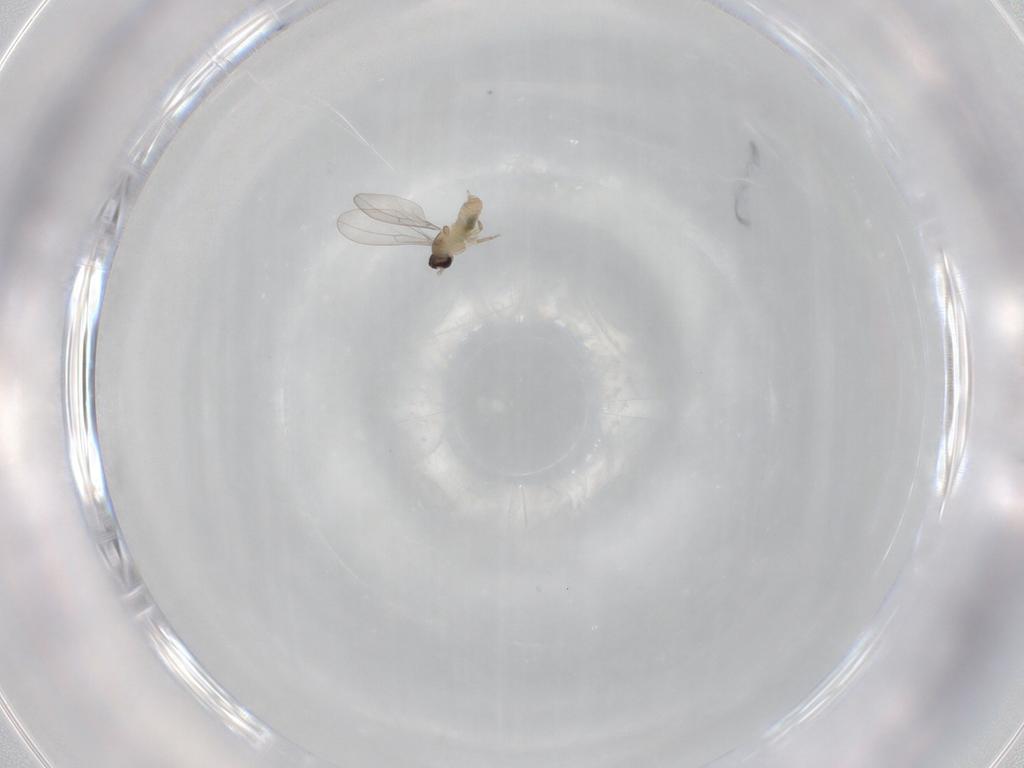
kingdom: Animalia
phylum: Arthropoda
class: Insecta
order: Diptera
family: Cecidomyiidae
